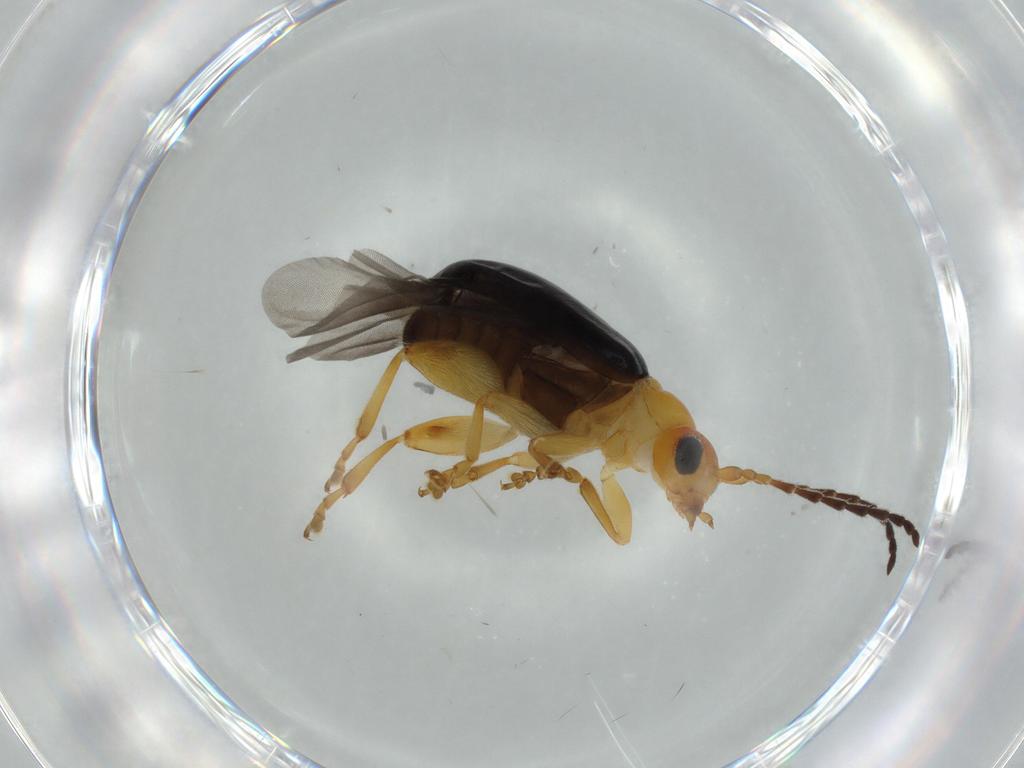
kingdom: Animalia
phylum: Arthropoda
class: Insecta
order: Coleoptera
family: Chrysomelidae
